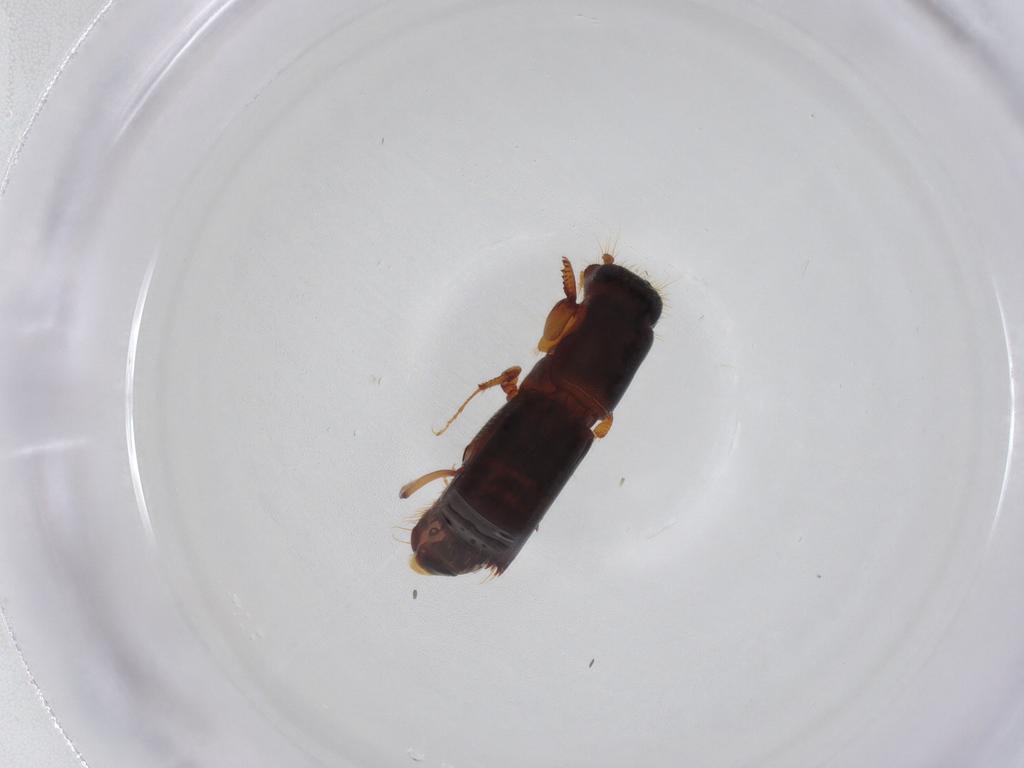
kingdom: Animalia
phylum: Arthropoda
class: Insecta
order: Coleoptera
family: Curculionidae
